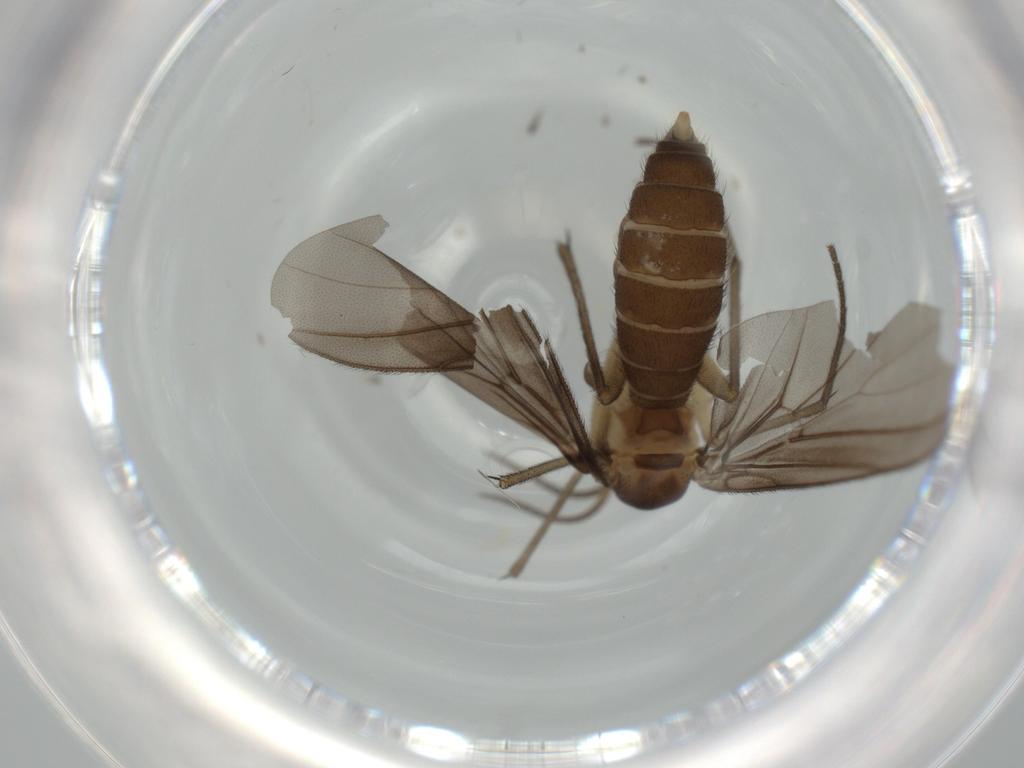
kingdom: Animalia
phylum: Arthropoda
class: Insecta
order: Diptera
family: Diadocidiidae
